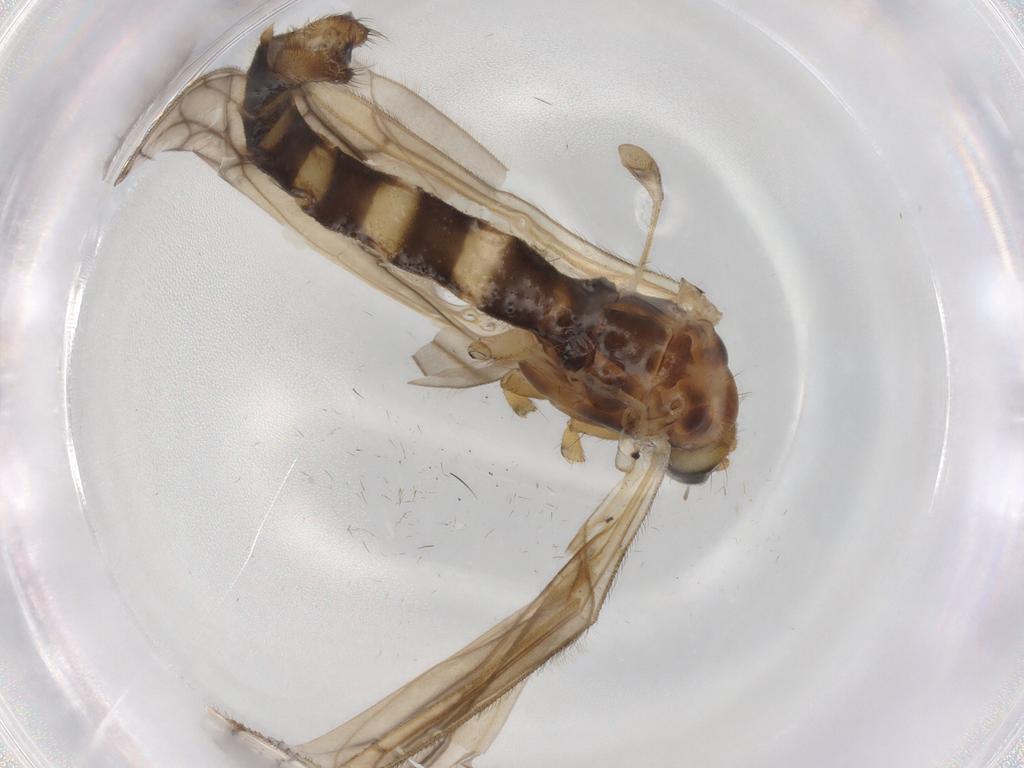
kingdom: Animalia
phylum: Arthropoda
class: Insecta
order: Diptera
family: Sciaridae
